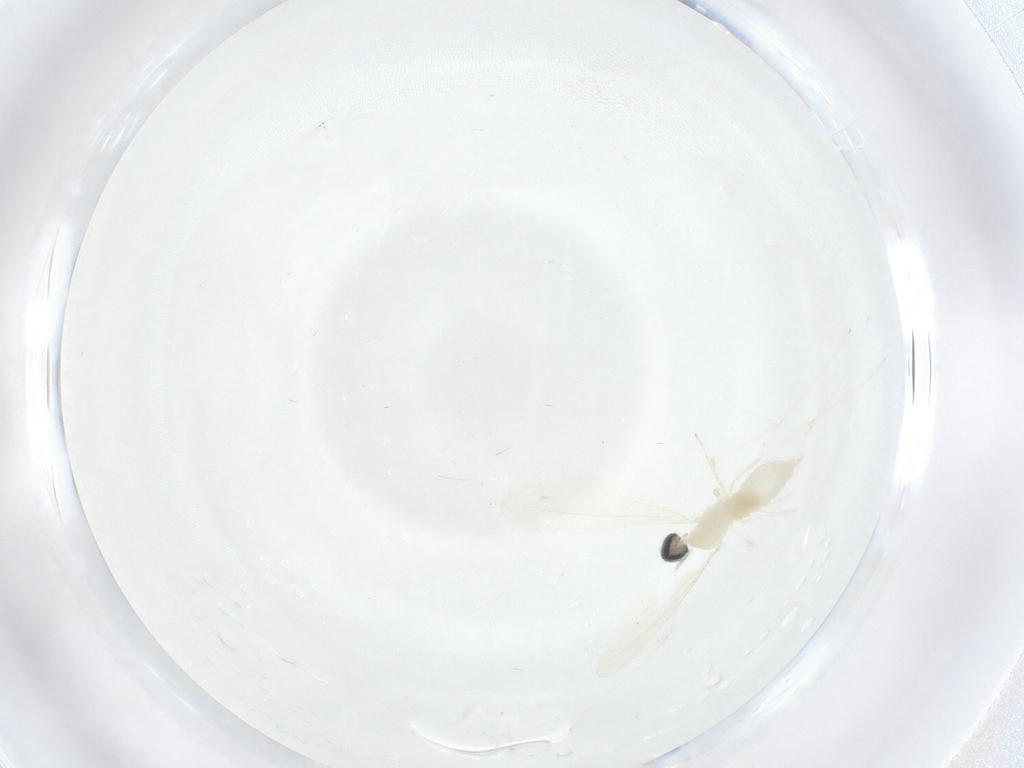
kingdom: Animalia
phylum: Arthropoda
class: Insecta
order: Diptera
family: Cecidomyiidae
